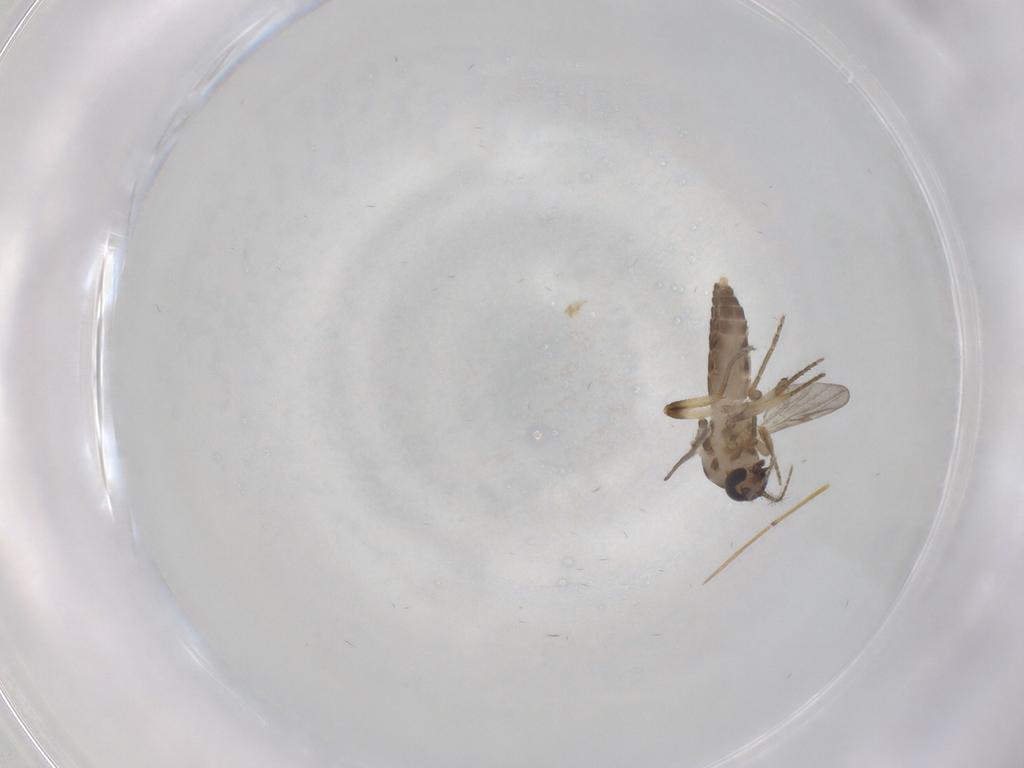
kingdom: Animalia
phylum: Arthropoda
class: Insecta
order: Diptera
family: Ceratopogonidae
